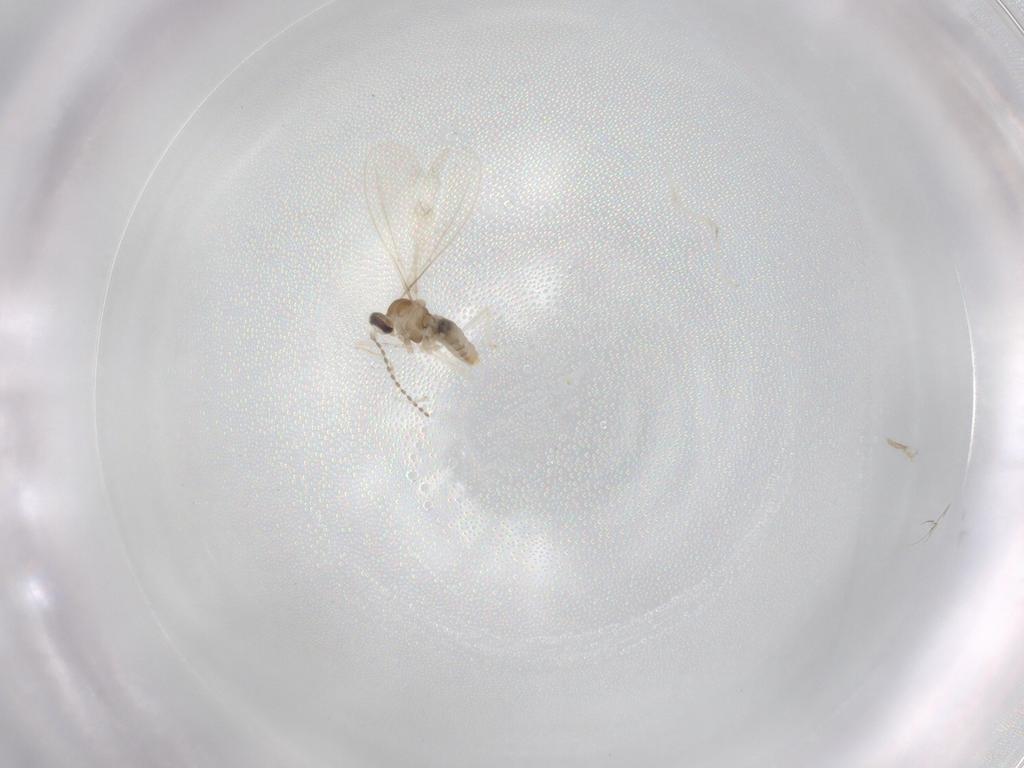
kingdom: Animalia
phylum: Arthropoda
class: Insecta
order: Diptera
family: Cecidomyiidae
